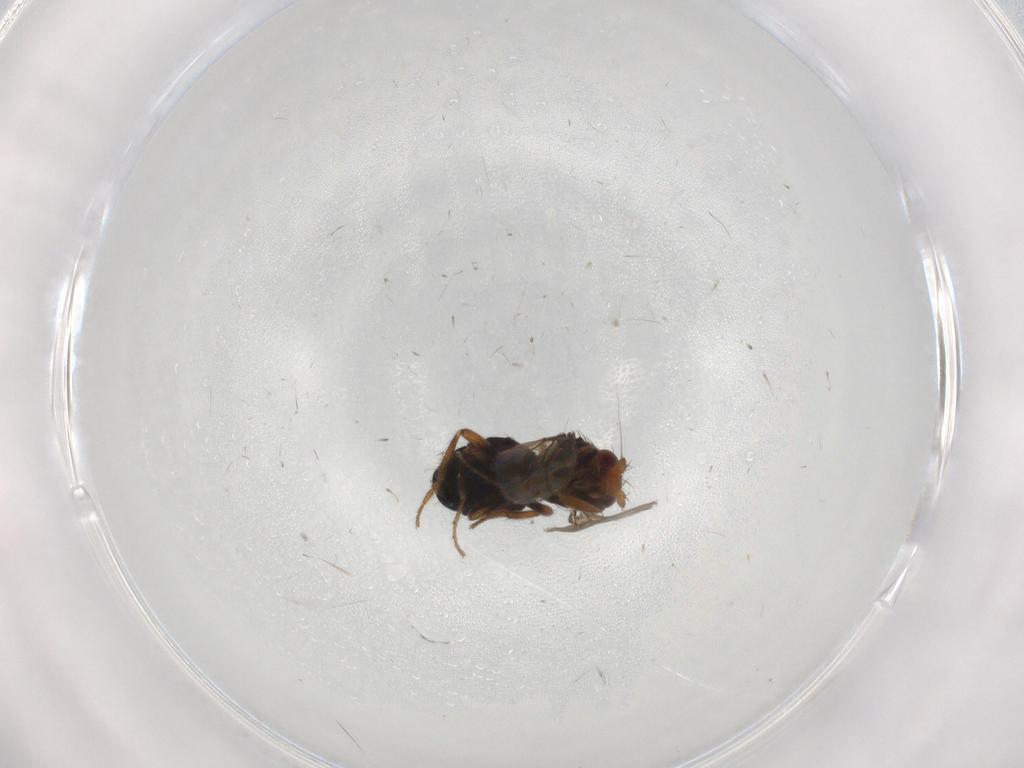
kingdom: Animalia
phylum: Arthropoda
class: Insecta
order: Diptera
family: Sphaeroceridae
